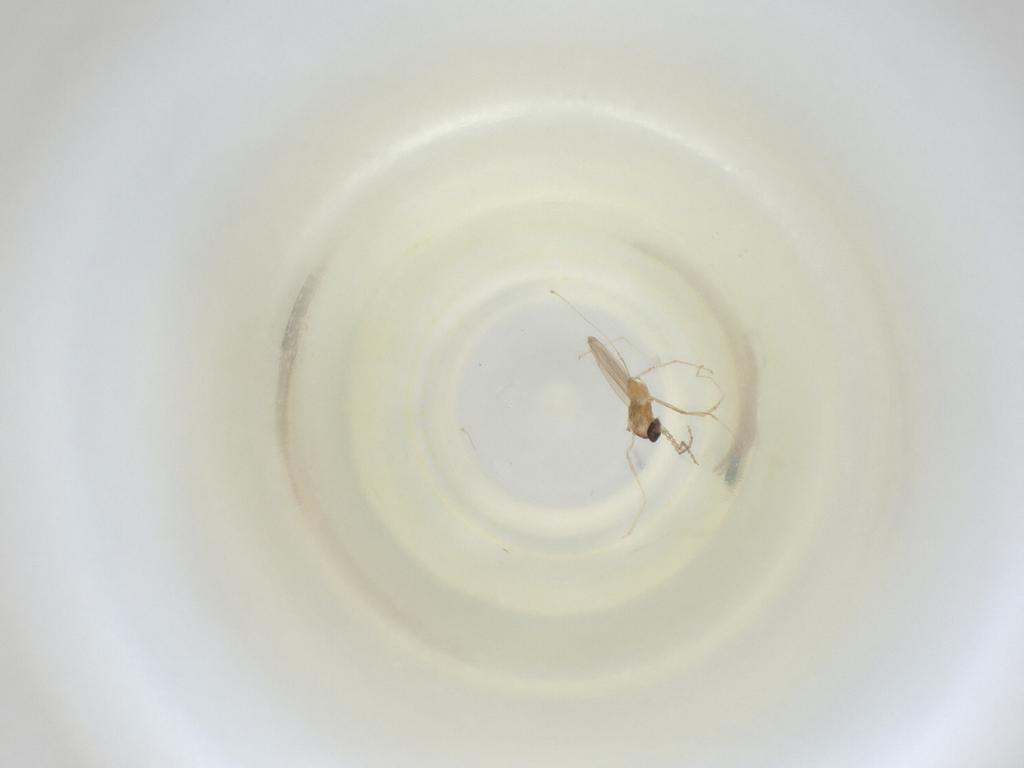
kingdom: Animalia
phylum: Arthropoda
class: Insecta
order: Diptera
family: Cecidomyiidae
